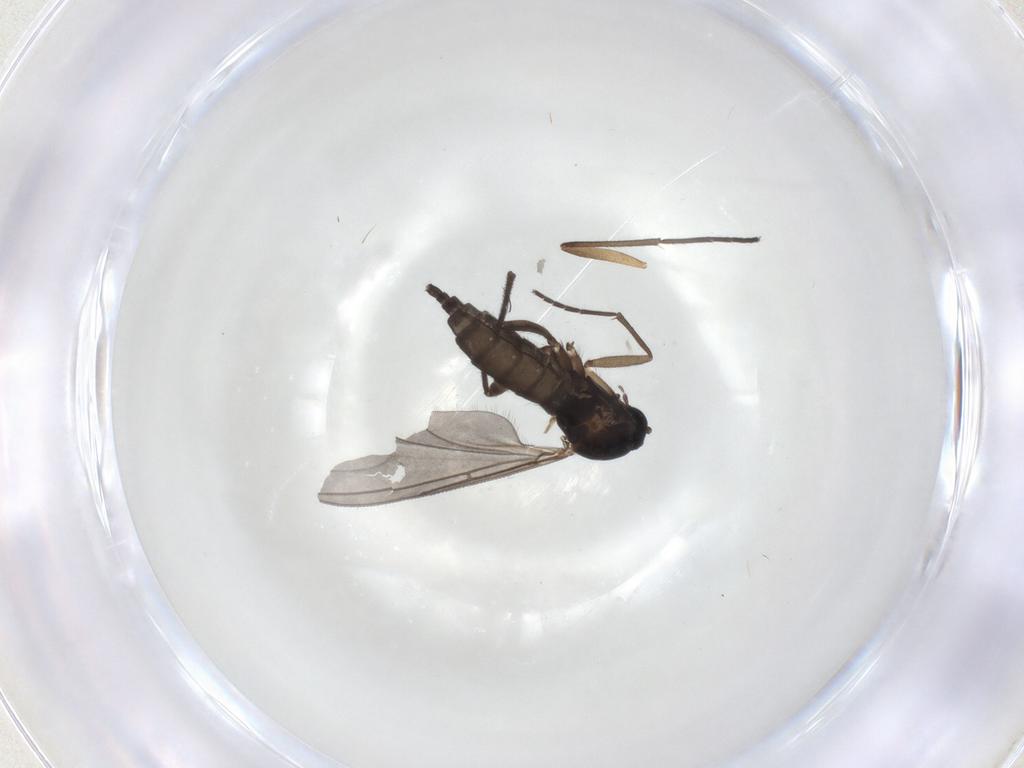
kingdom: Animalia
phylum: Arthropoda
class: Insecta
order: Diptera
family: Sciaridae
